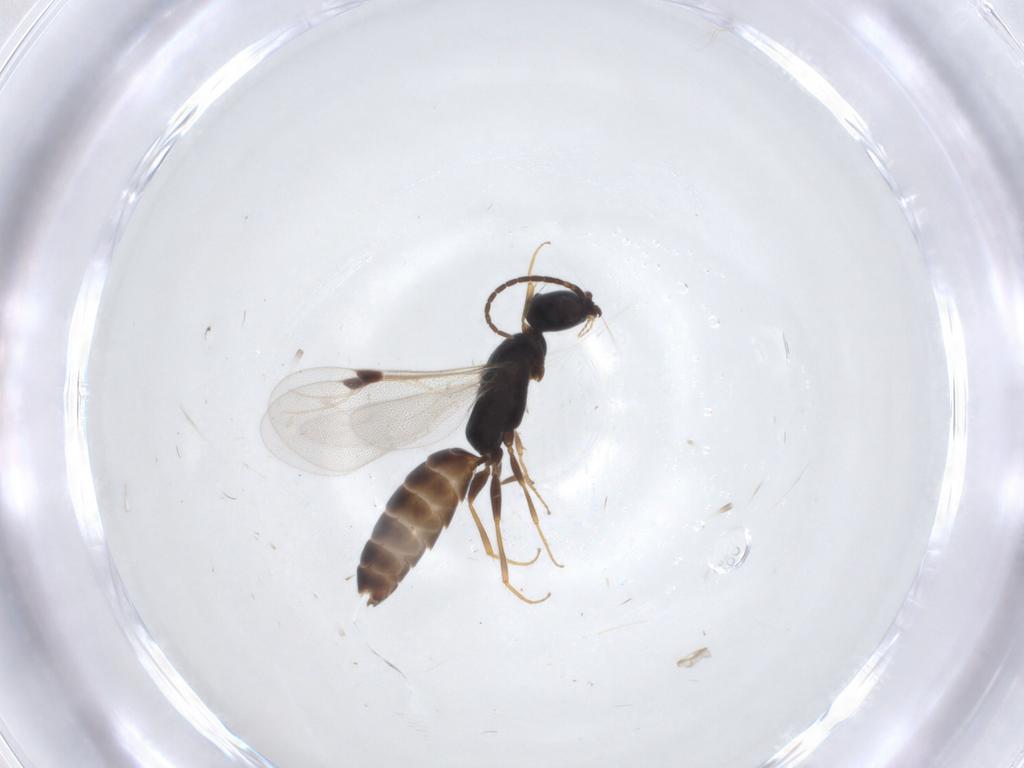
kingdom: Animalia
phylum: Arthropoda
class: Insecta
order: Hymenoptera
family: Bethylidae
